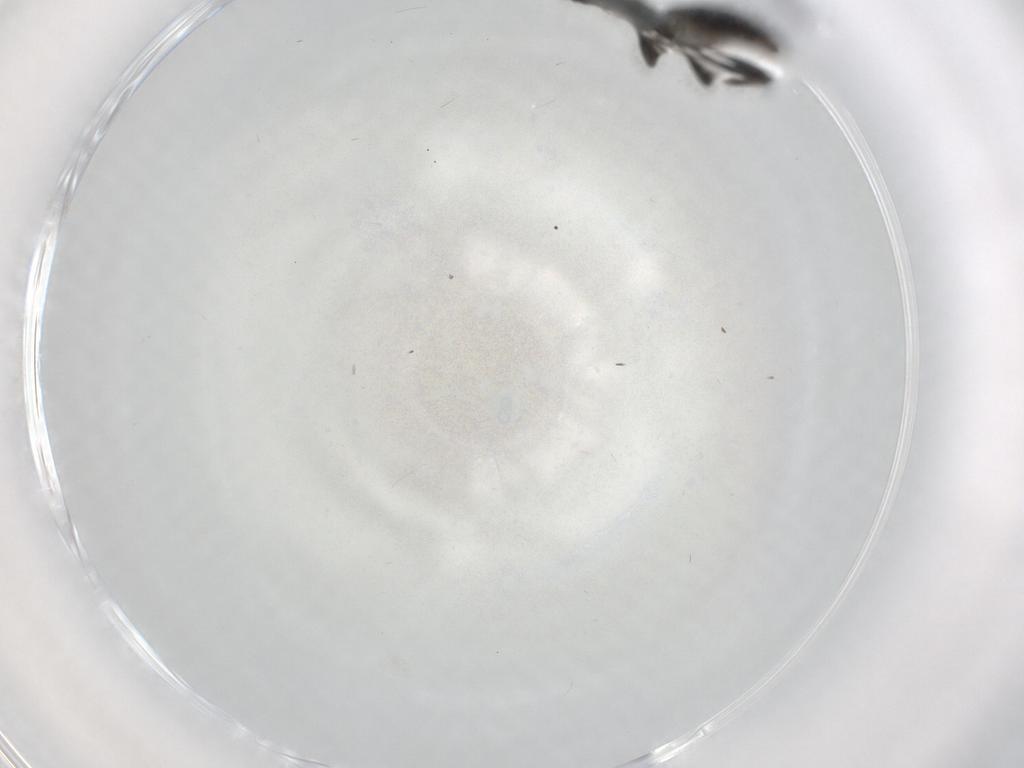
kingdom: Animalia
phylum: Arthropoda
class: Insecta
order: Hymenoptera
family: Ichneumonidae
